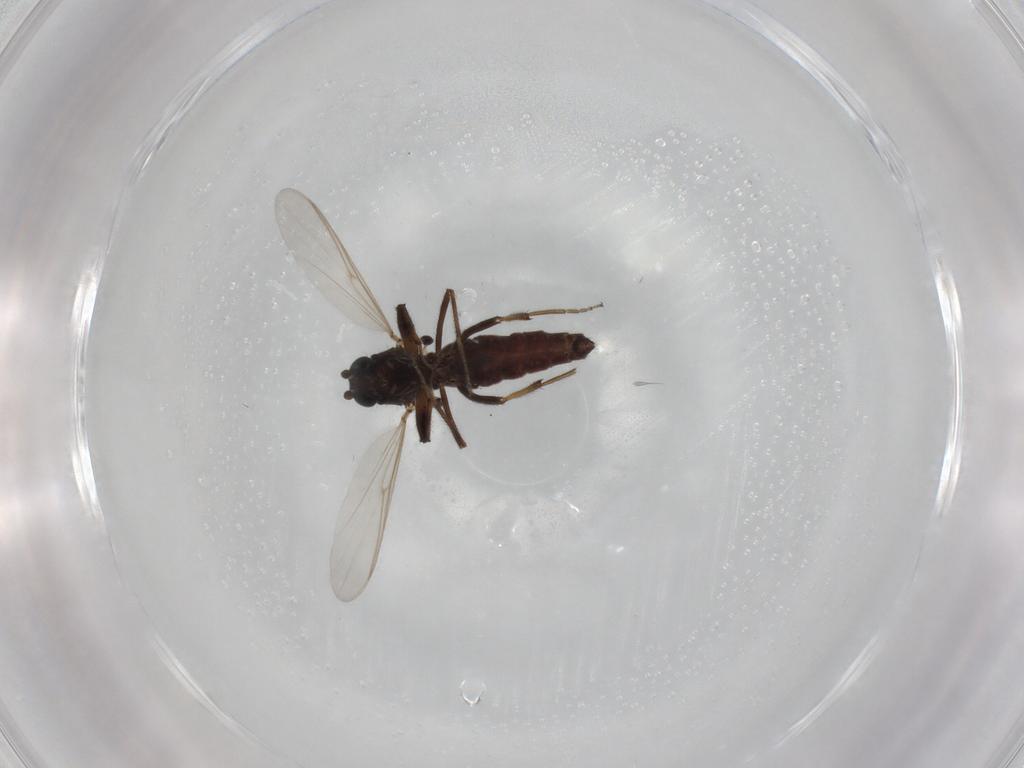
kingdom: Animalia
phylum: Arthropoda
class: Insecta
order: Diptera
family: Ceratopogonidae
